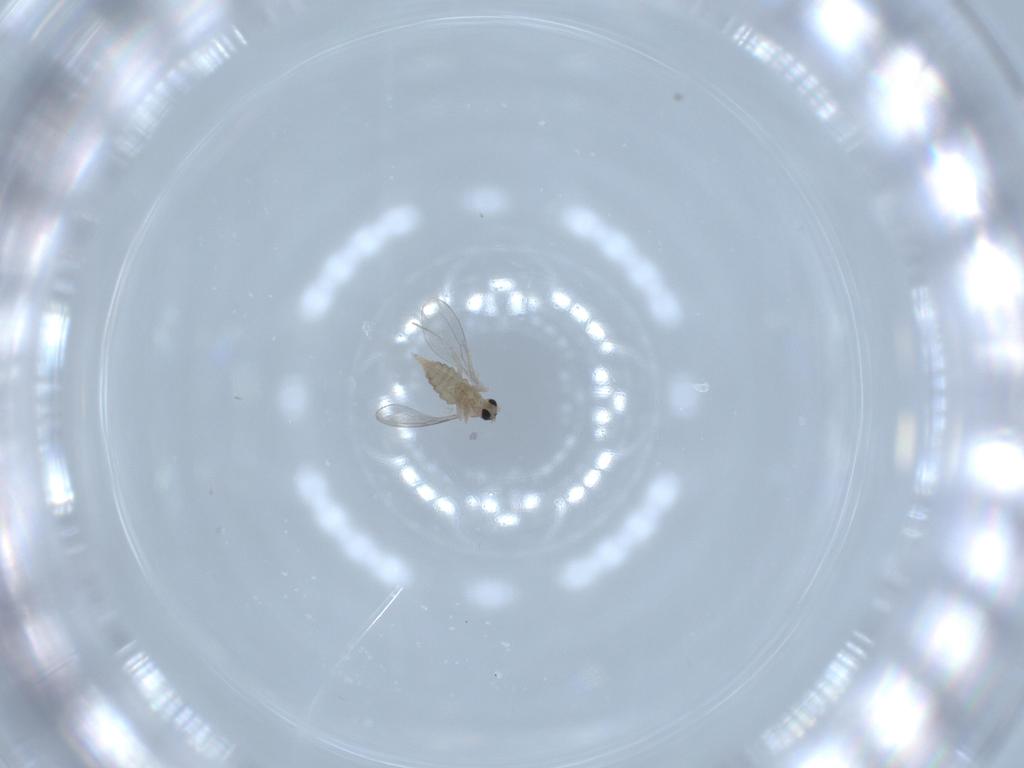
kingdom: Animalia
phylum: Arthropoda
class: Insecta
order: Diptera
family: Cecidomyiidae
